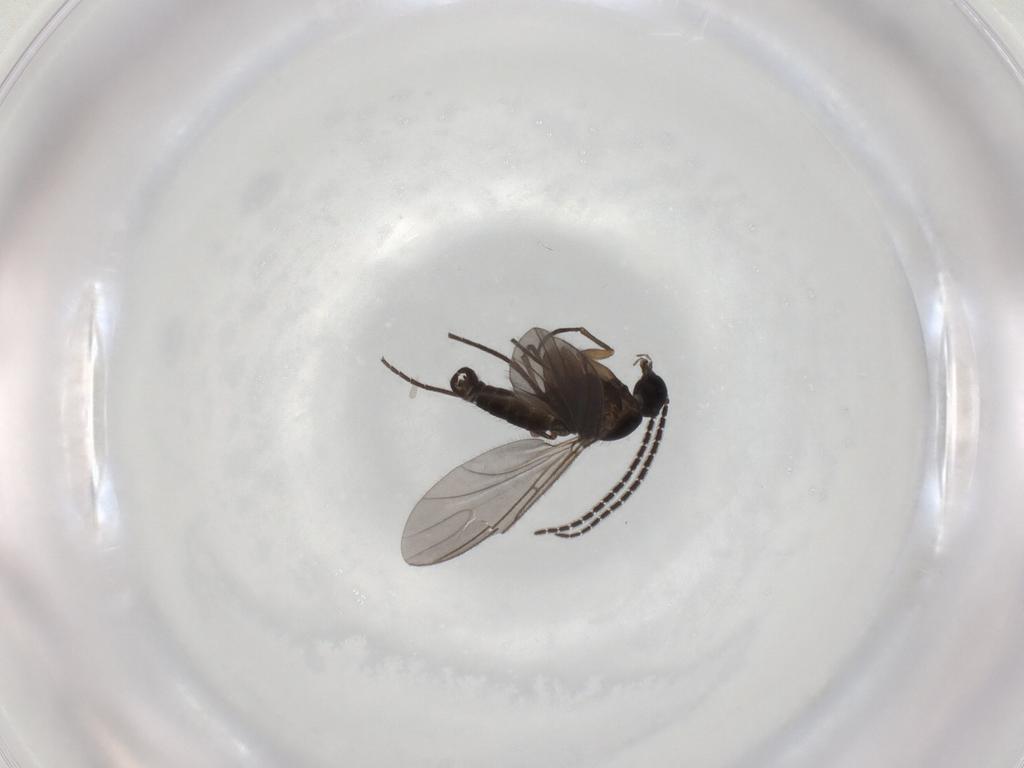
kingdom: Animalia
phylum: Arthropoda
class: Insecta
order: Diptera
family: Sciaridae
